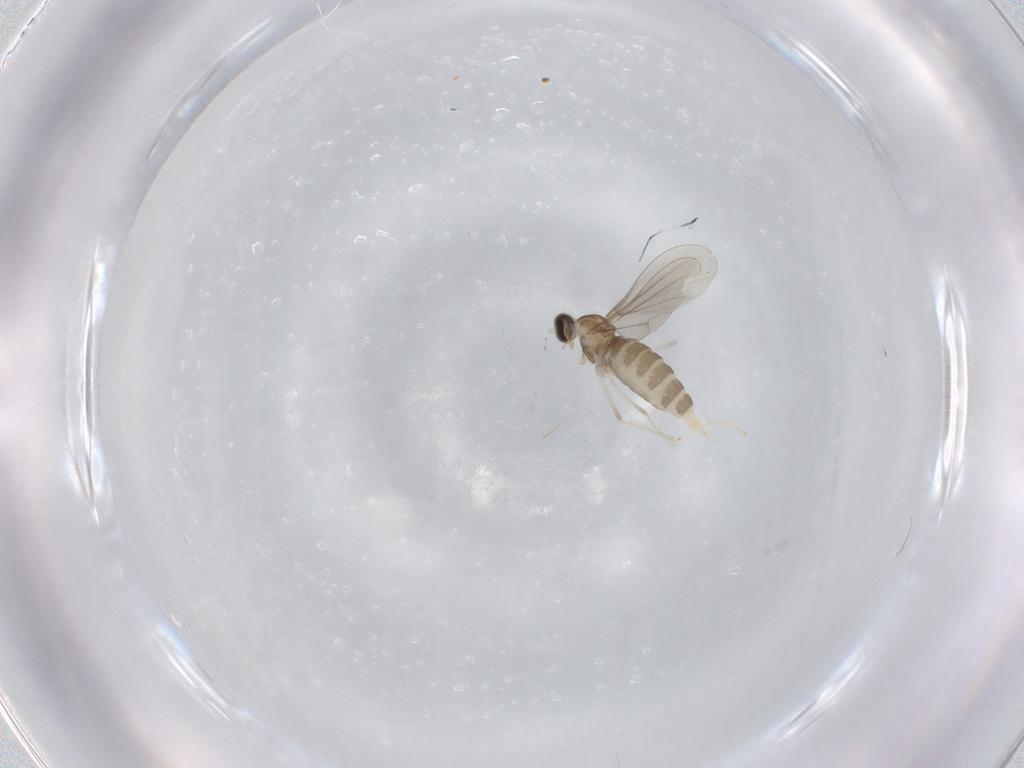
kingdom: Animalia
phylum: Arthropoda
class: Insecta
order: Diptera
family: Cecidomyiidae
